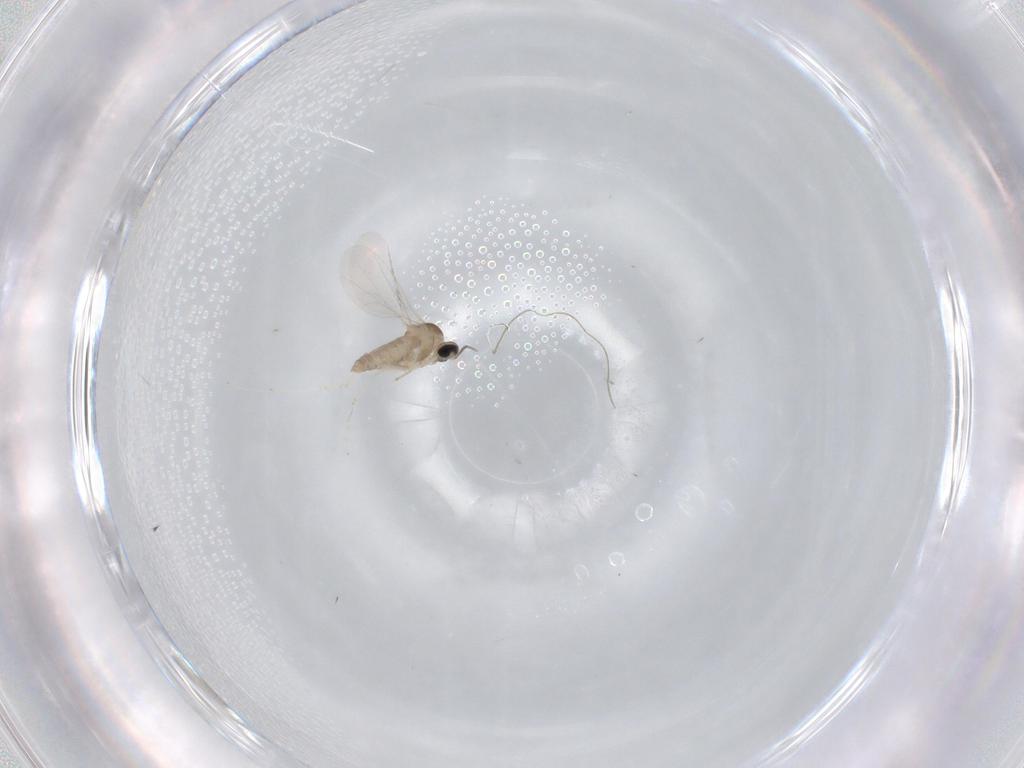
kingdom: Animalia
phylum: Arthropoda
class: Insecta
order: Diptera
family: Cecidomyiidae
